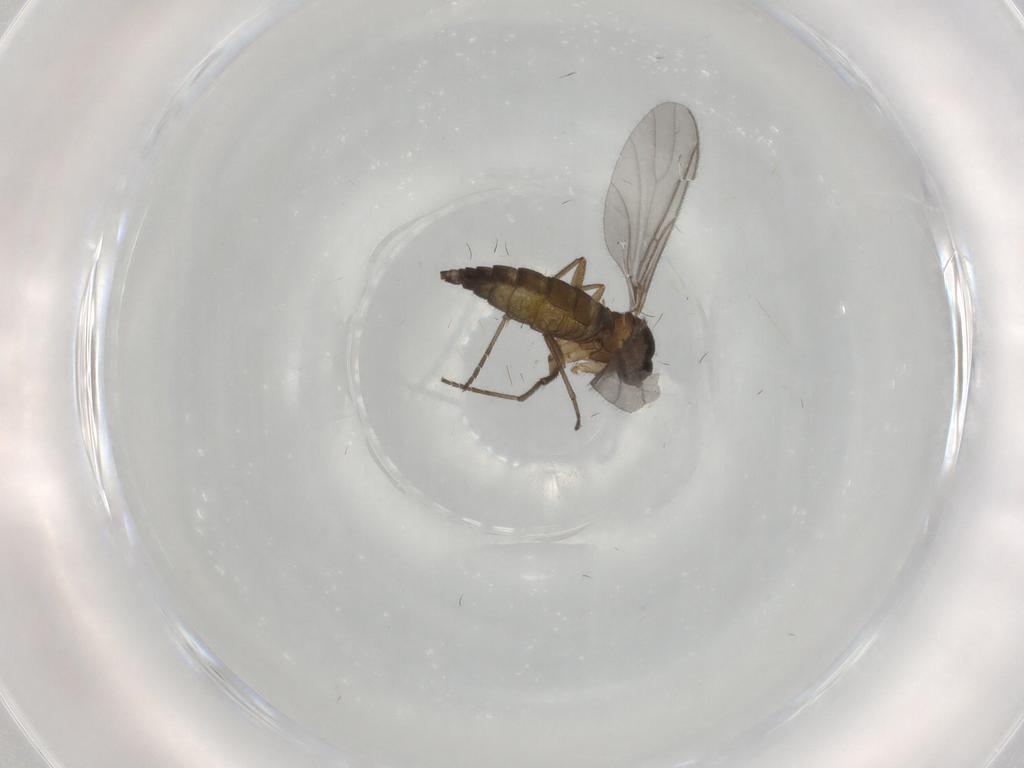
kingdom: Animalia
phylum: Arthropoda
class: Insecta
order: Diptera
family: Sciaridae
